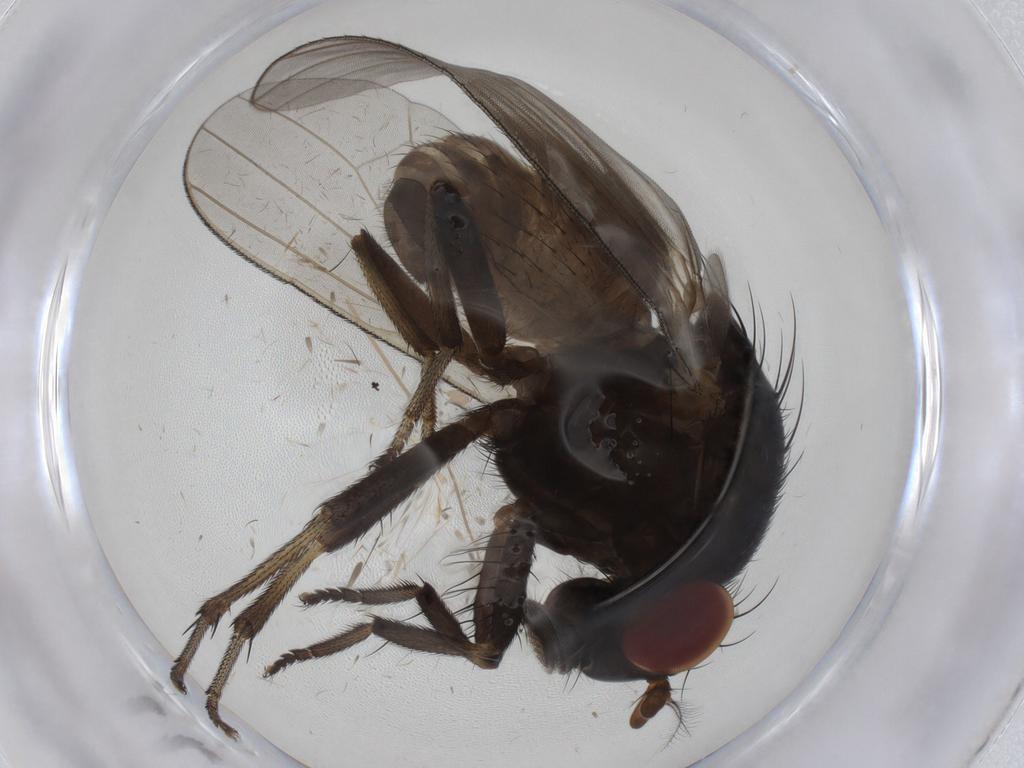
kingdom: Animalia
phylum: Arthropoda
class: Insecta
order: Diptera
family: Lauxaniidae
